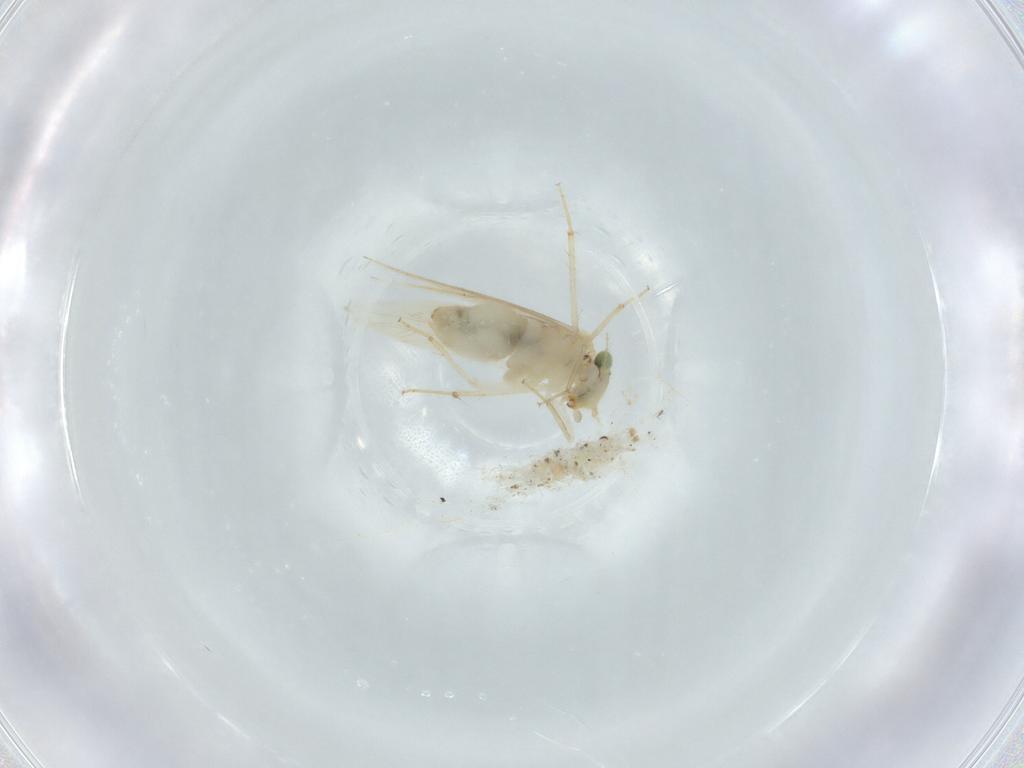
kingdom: Animalia
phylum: Arthropoda
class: Insecta
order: Psocodea
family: Lepidopsocidae
